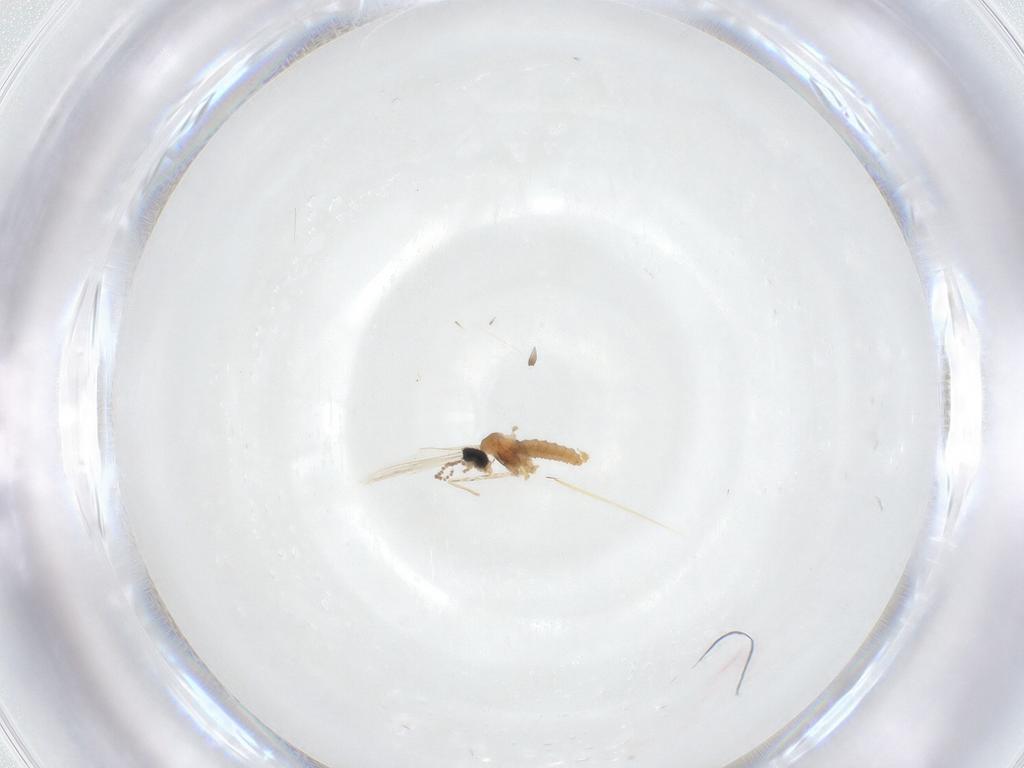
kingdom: Animalia
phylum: Arthropoda
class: Insecta
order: Diptera
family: Cecidomyiidae
